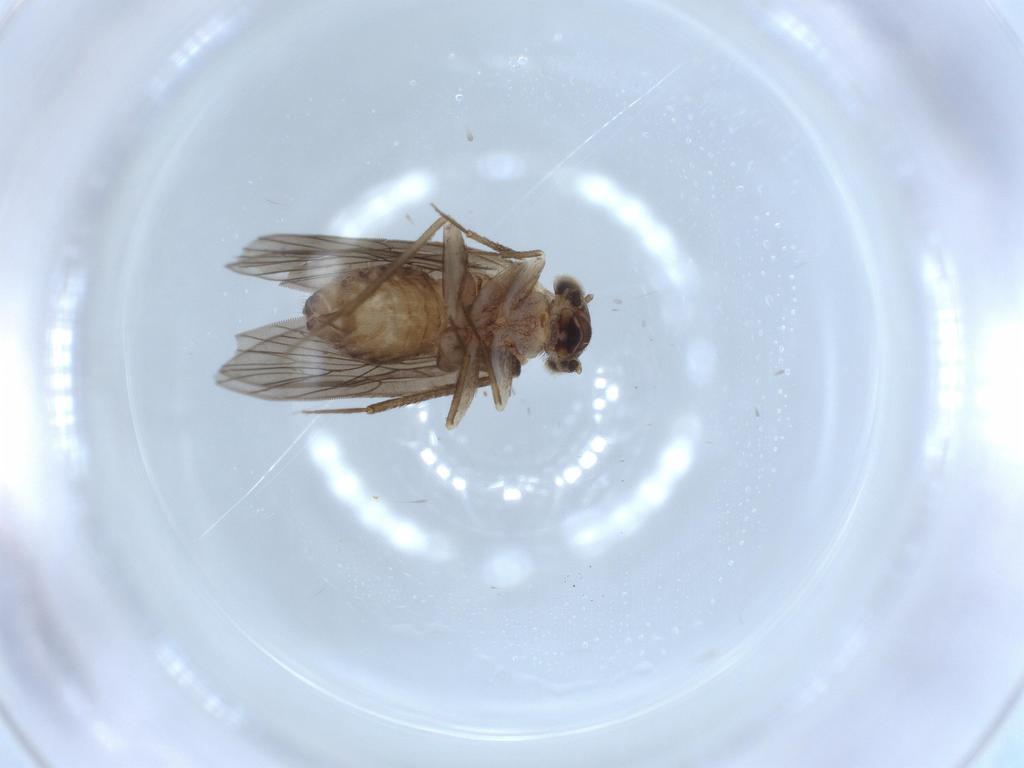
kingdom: Animalia
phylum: Arthropoda
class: Insecta
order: Psocodea
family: Lepidopsocidae
